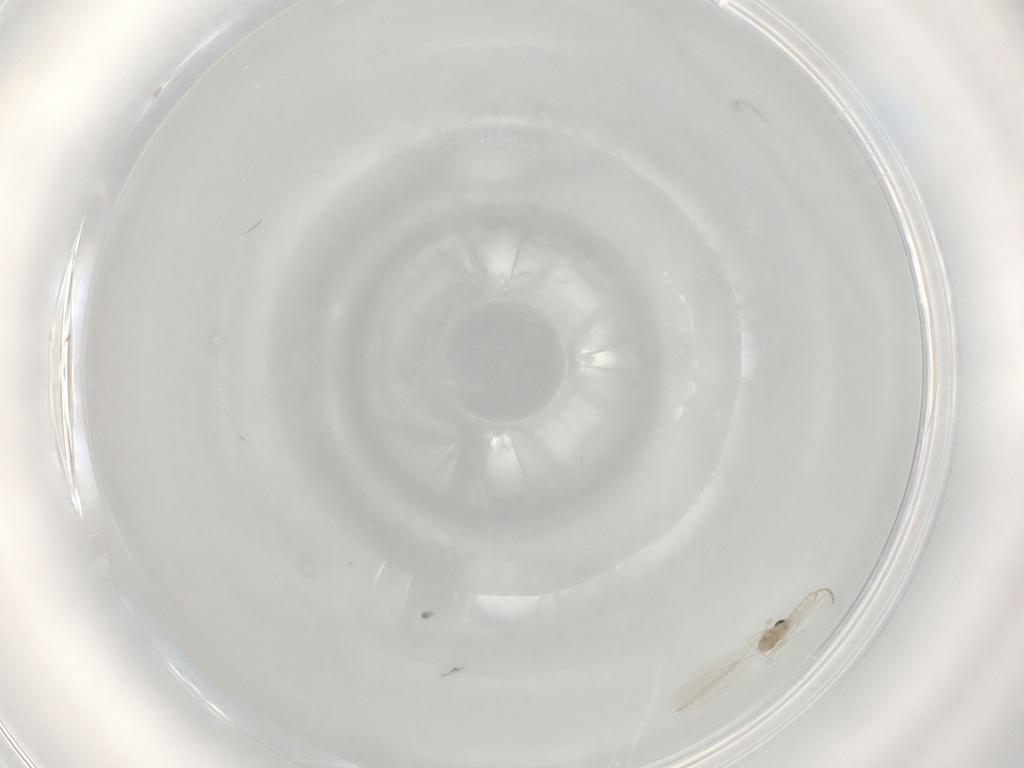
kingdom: Animalia
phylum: Arthropoda
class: Insecta
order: Diptera
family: Cecidomyiidae
